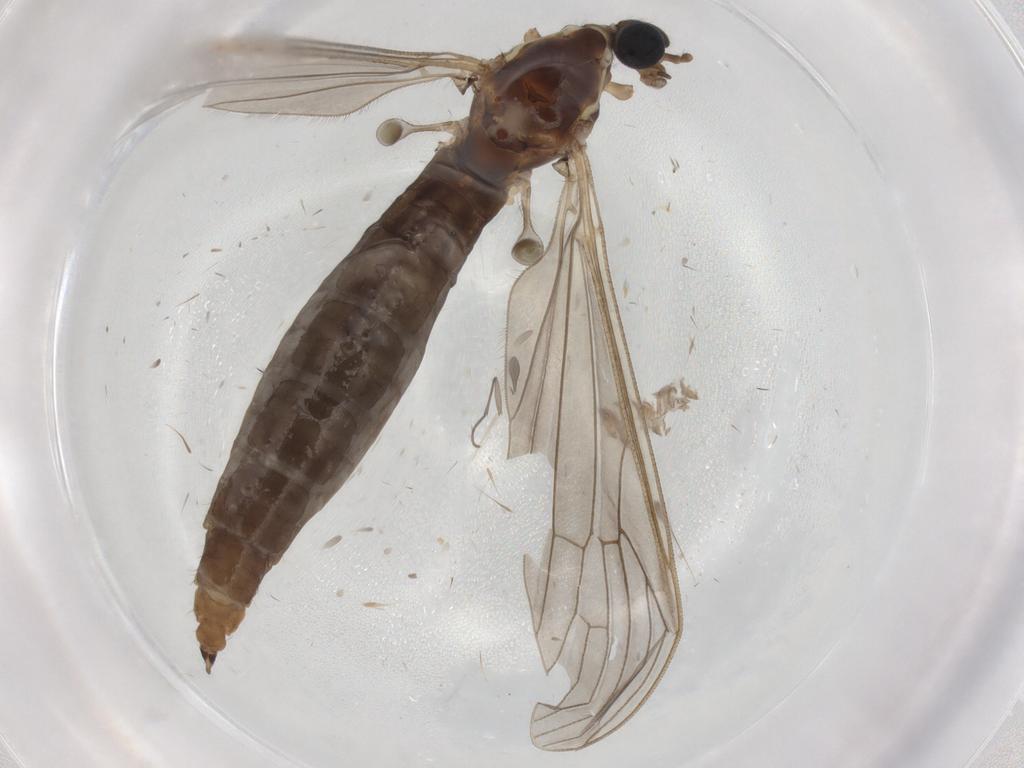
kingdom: Animalia
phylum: Arthropoda
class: Insecta
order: Diptera
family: Limoniidae
